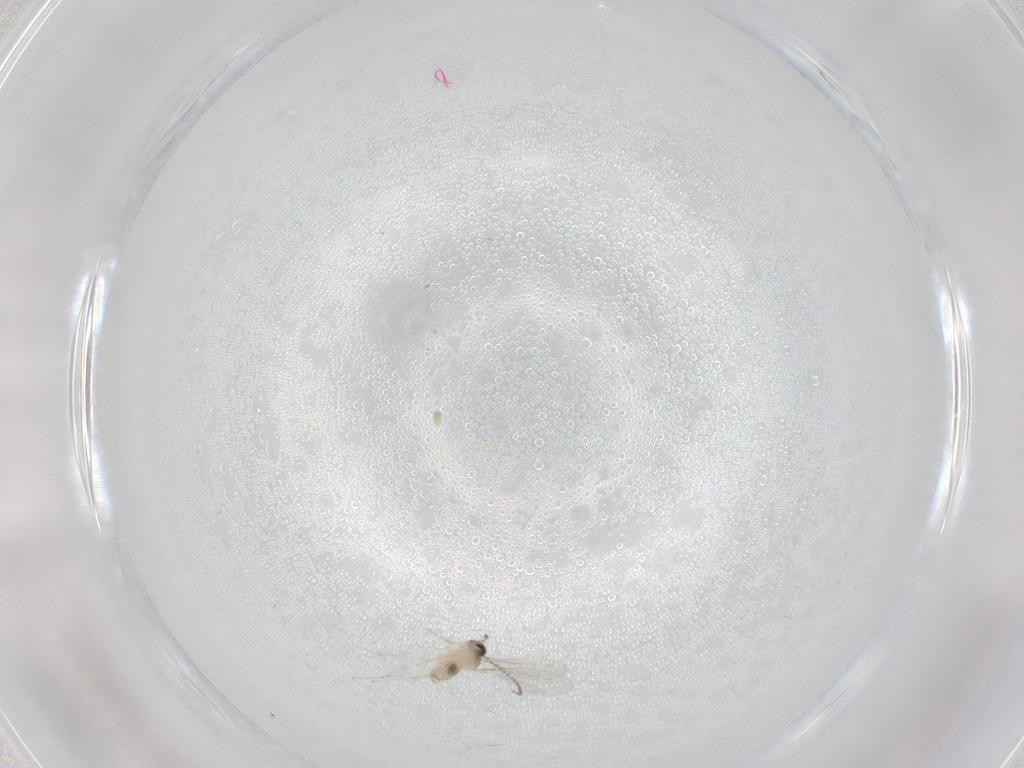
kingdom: Animalia
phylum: Arthropoda
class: Insecta
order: Diptera
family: Cecidomyiidae
